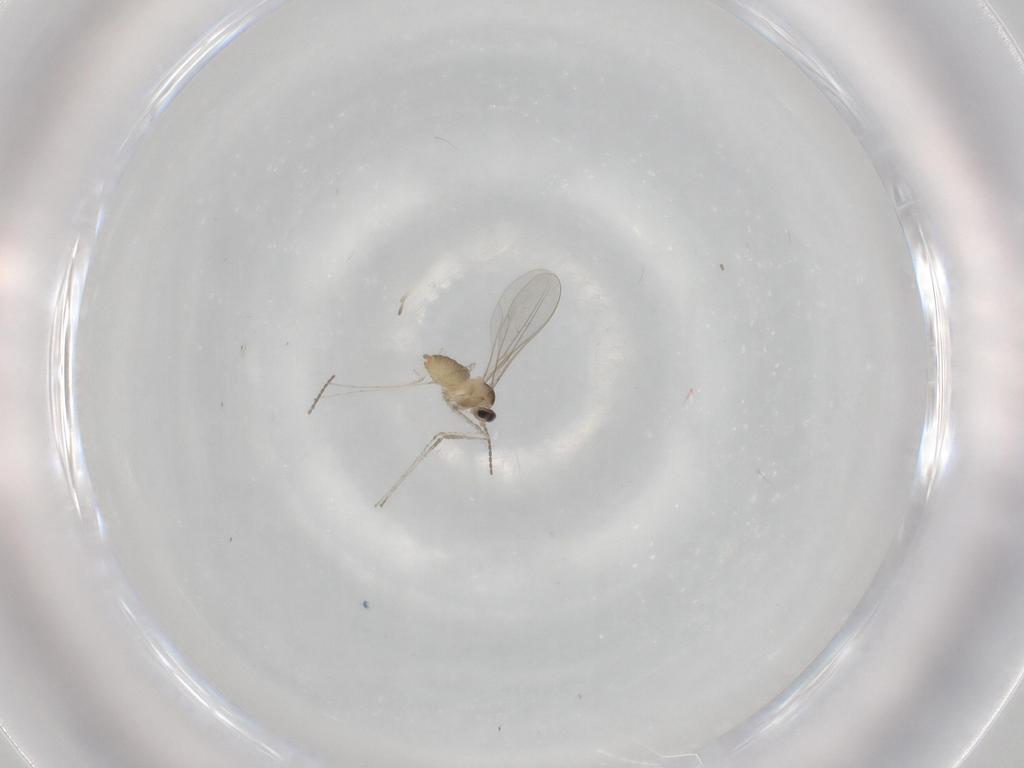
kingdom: Animalia
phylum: Arthropoda
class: Insecta
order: Diptera
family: Cecidomyiidae
